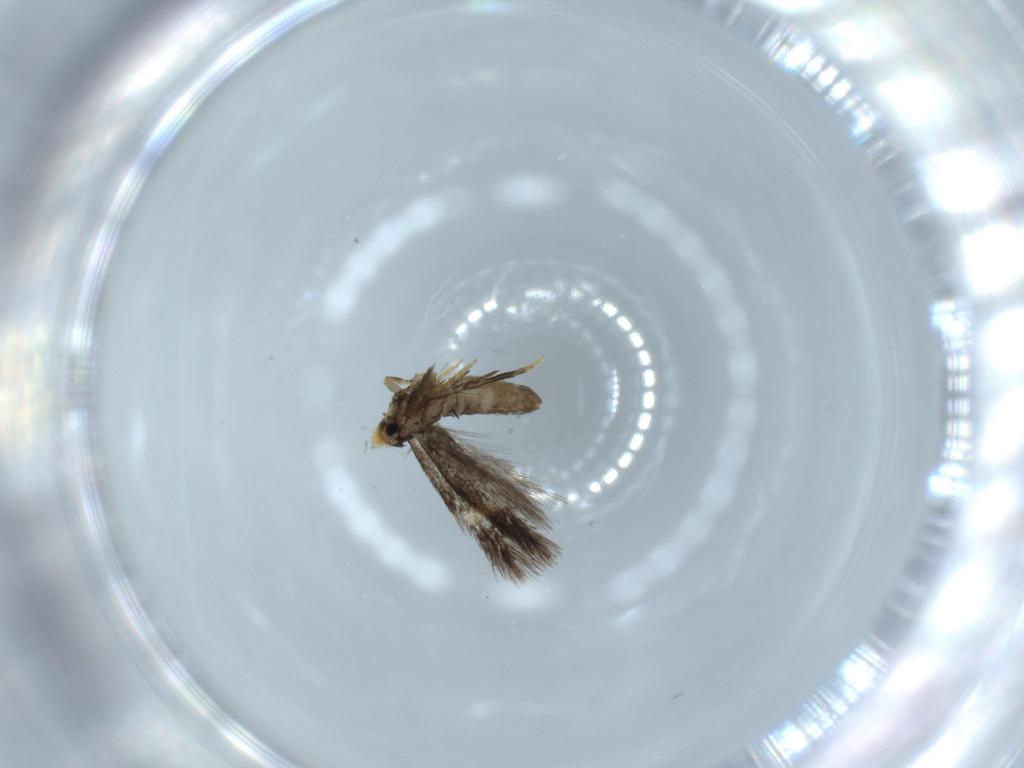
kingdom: Animalia
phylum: Arthropoda
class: Insecta
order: Lepidoptera
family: Nepticulidae
